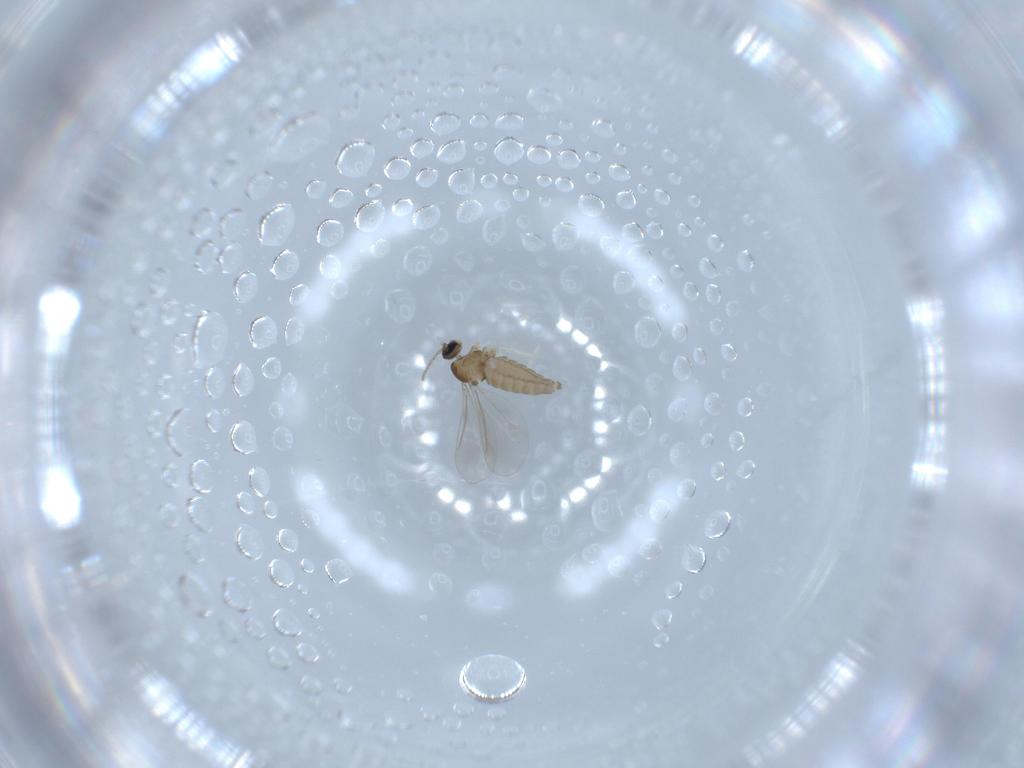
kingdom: Animalia
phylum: Arthropoda
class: Insecta
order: Diptera
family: Cecidomyiidae
